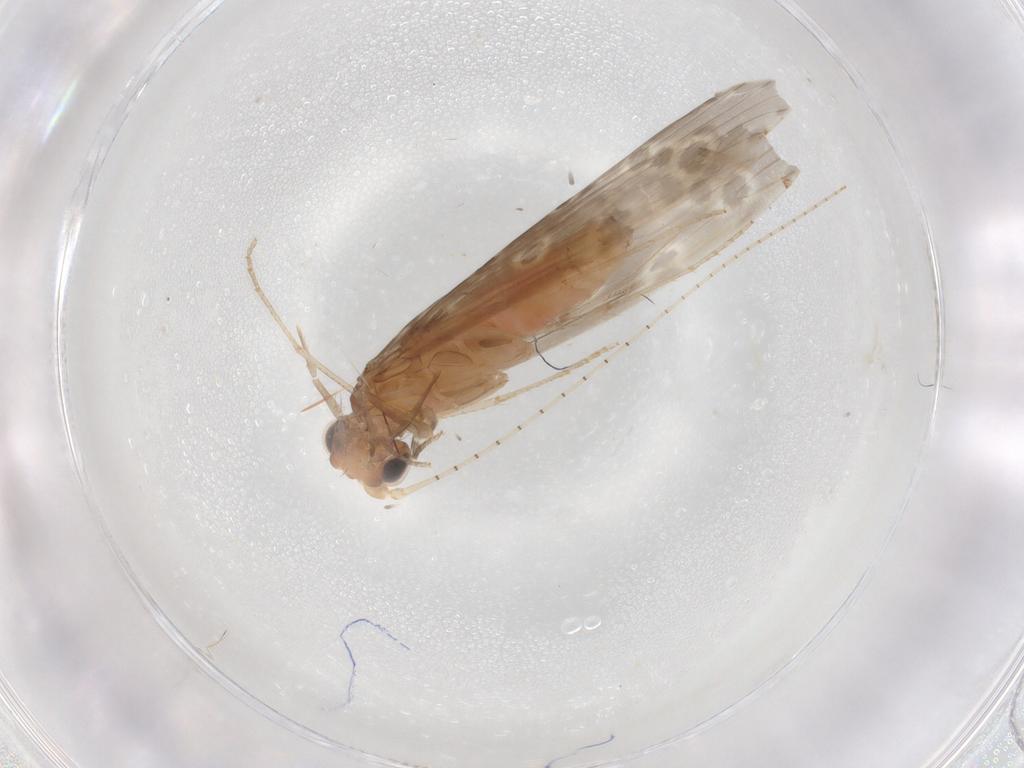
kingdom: Animalia
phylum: Arthropoda
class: Insecta
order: Trichoptera
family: Leptoceridae
